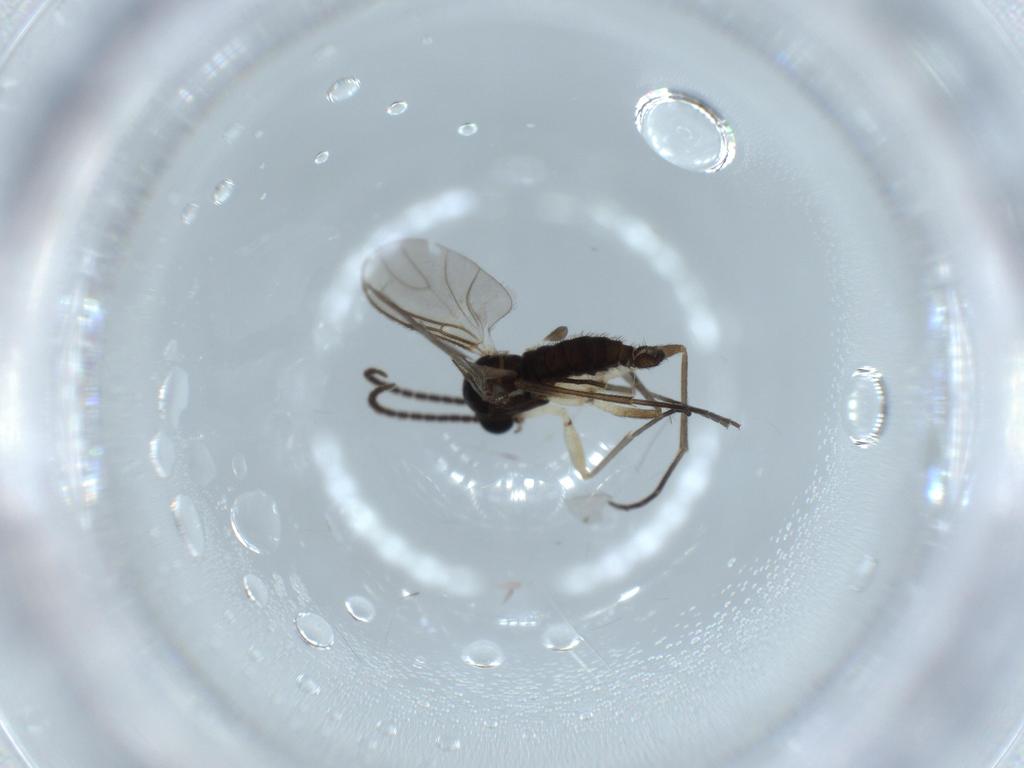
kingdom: Animalia
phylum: Arthropoda
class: Insecta
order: Diptera
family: Sciaridae
